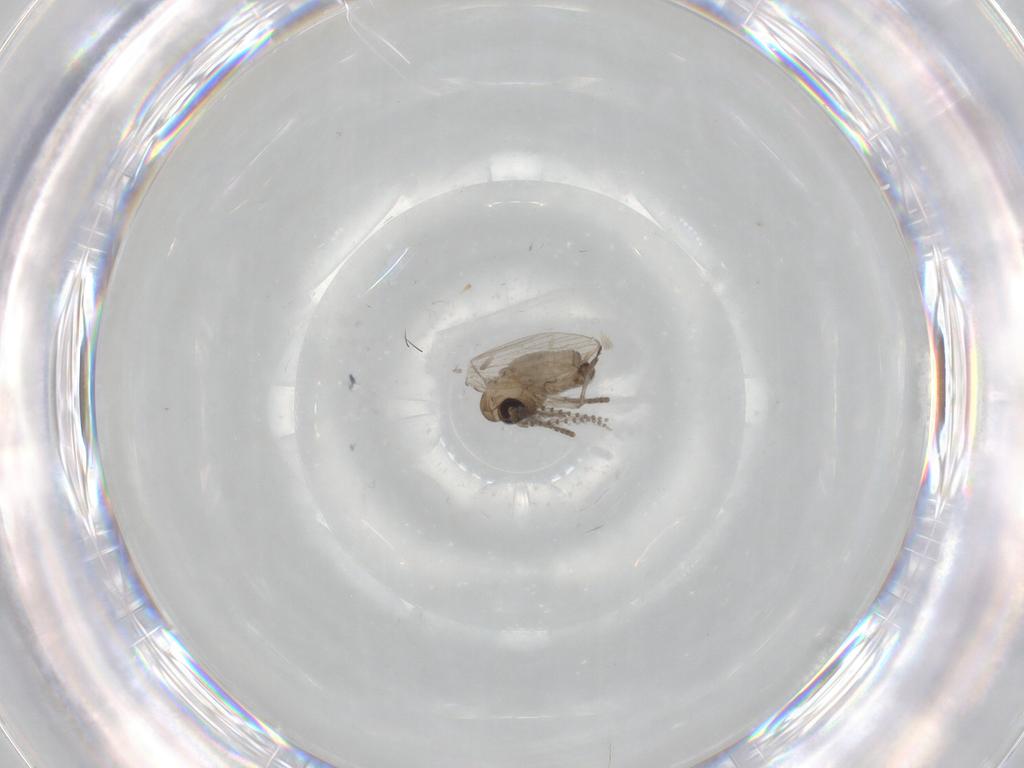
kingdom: Animalia
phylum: Arthropoda
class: Insecta
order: Diptera
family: Psychodidae
